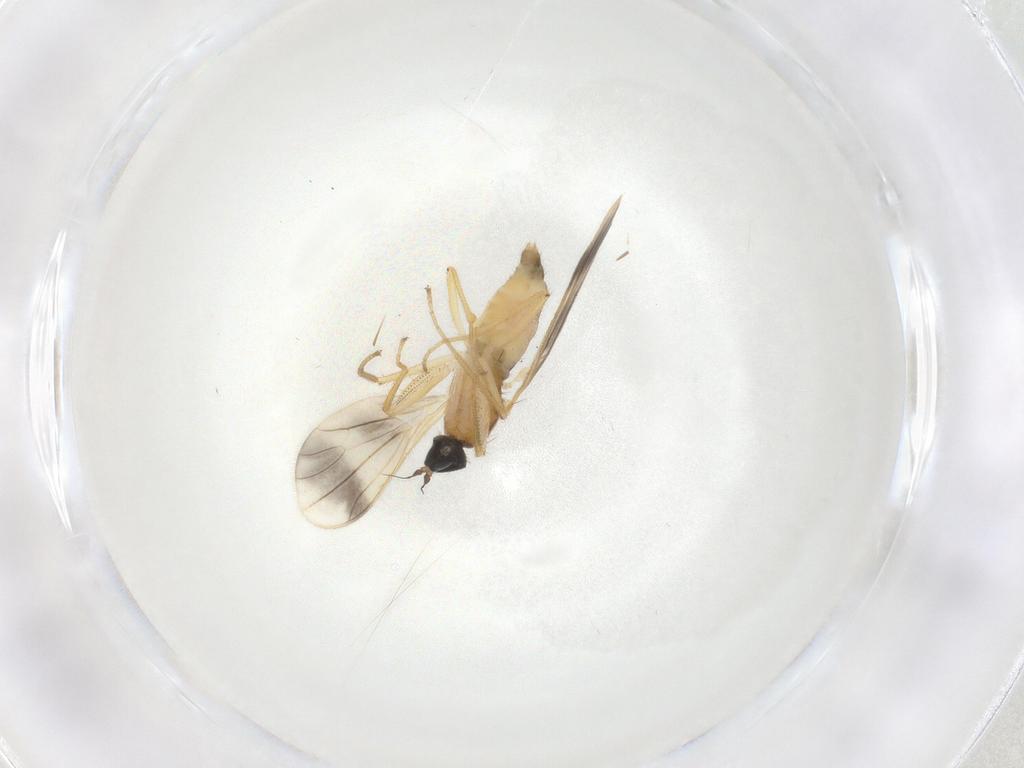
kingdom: Animalia
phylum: Arthropoda
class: Insecta
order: Diptera
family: Empididae
